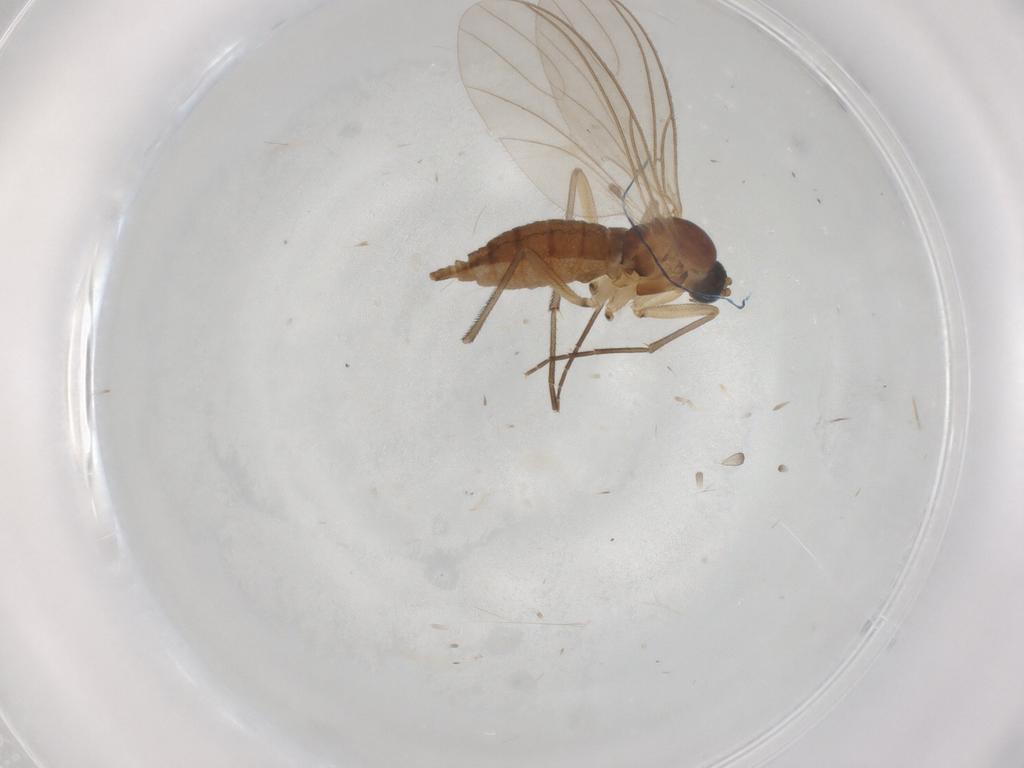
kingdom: Animalia
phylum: Arthropoda
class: Insecta
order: Diptera
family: Sciaridae
